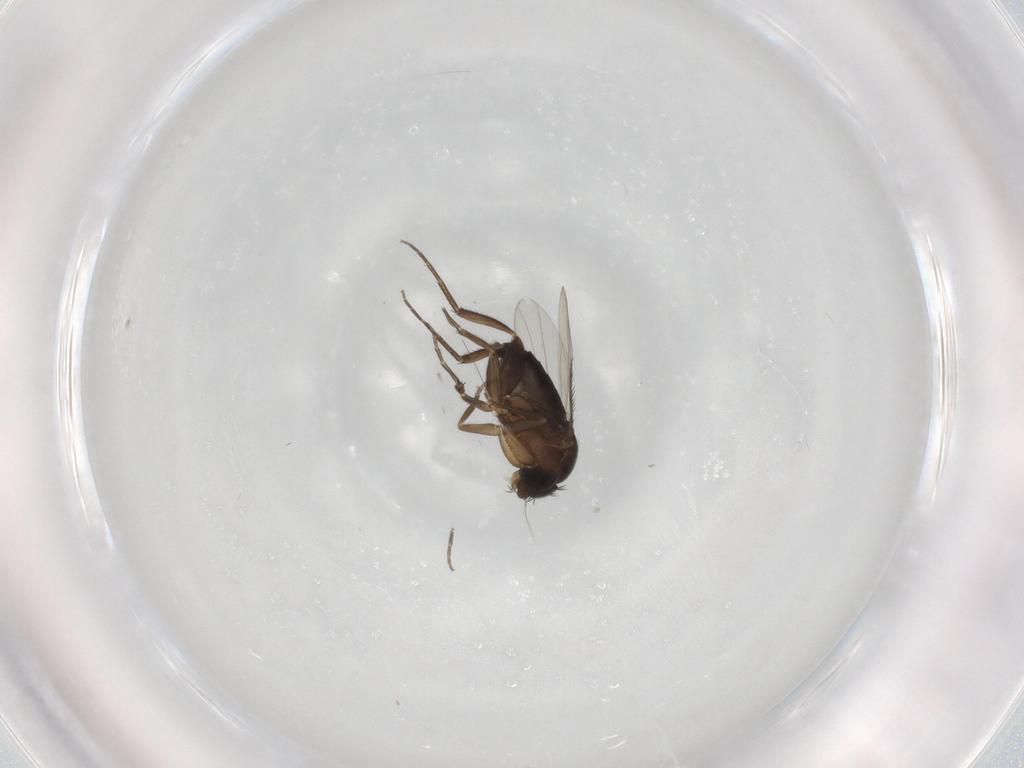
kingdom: Animalia
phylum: Arthropoda
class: Insecta
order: Diptera
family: Phoridae
